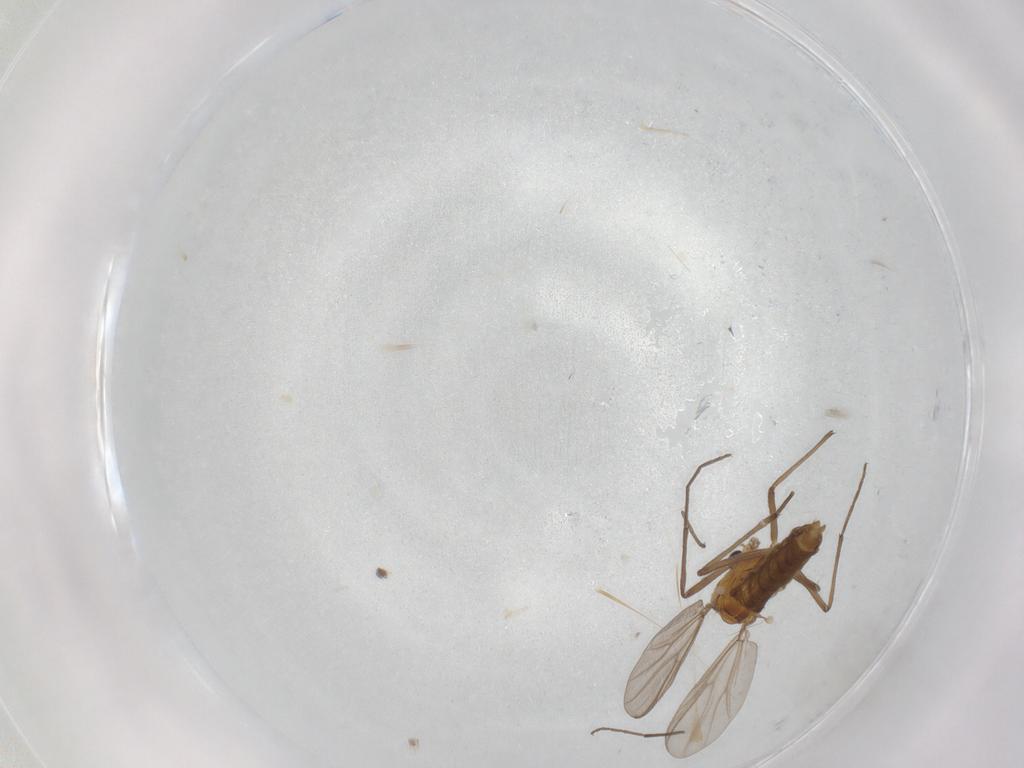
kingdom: Animalia
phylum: Arthropoda
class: Insecta
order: Diptera
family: Chironomidae
